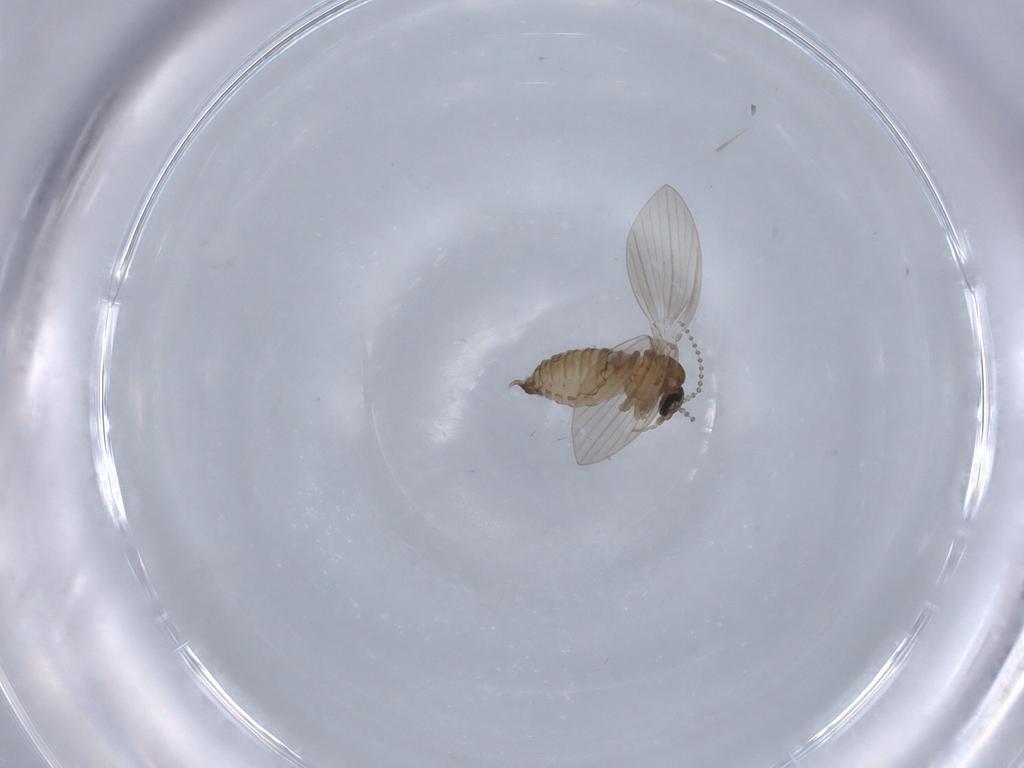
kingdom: Animalia
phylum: Arthropoda
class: Insecta
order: Diptera
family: Psychodidae
